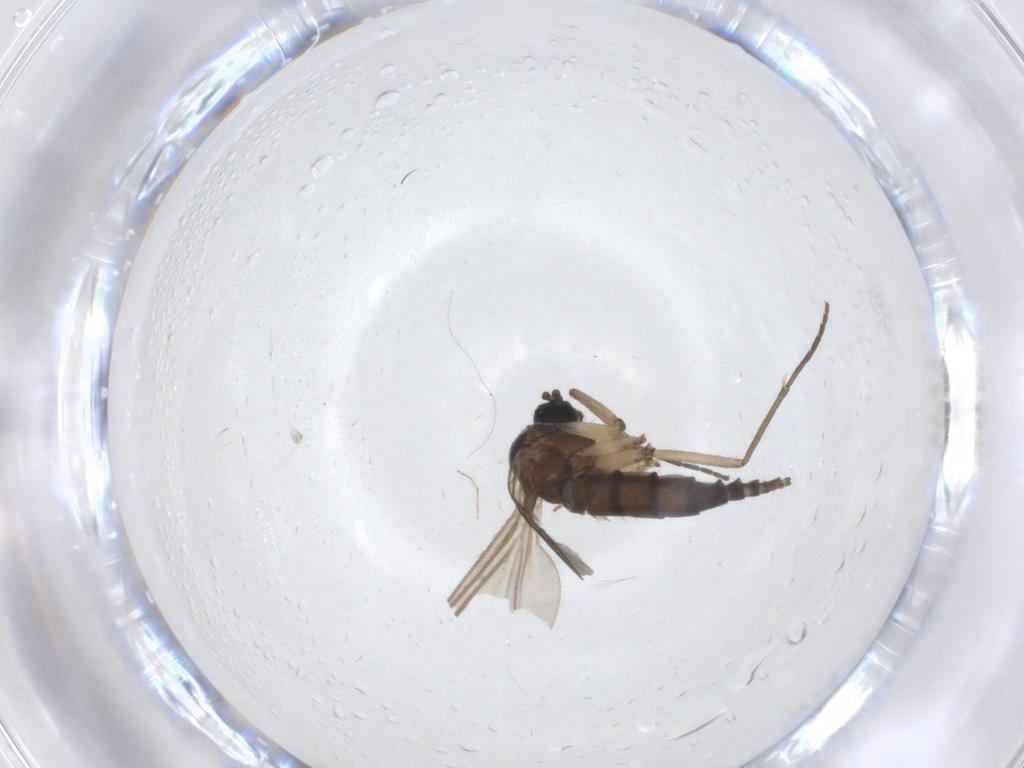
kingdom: Animalia
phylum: Arthropoda
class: Insecta
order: Diptera
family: Sciaridae
